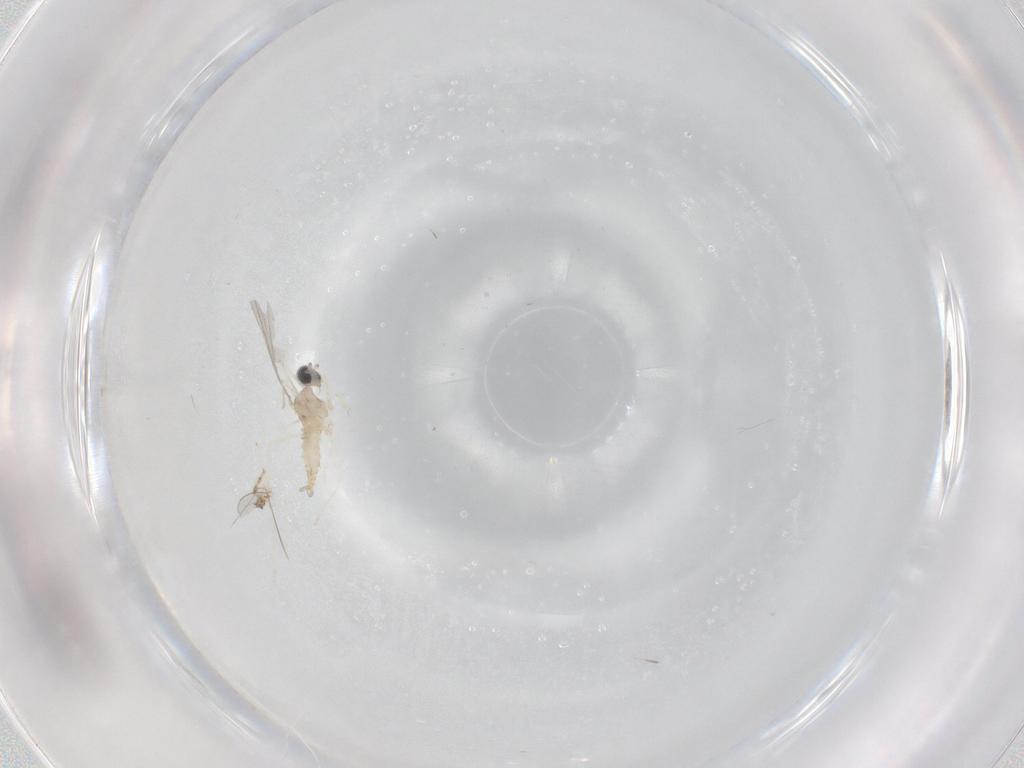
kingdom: Animalia
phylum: Arthropoda
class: Insecta
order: Diptera
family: Cecidomyiidae
